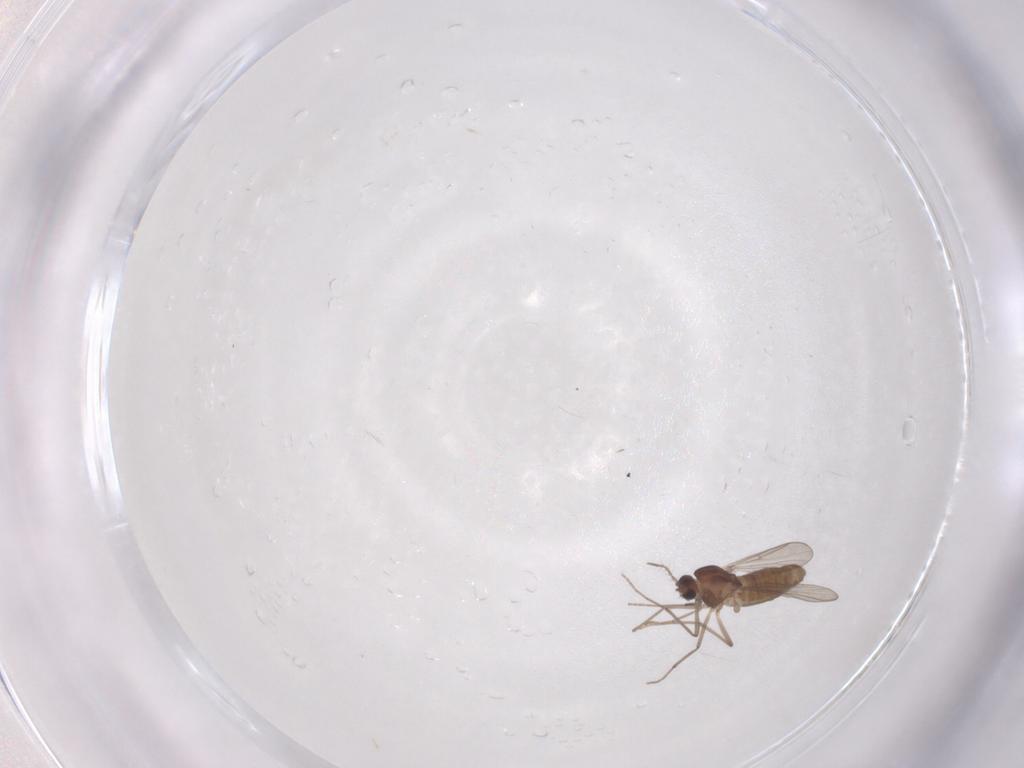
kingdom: Animalia
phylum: Arthropoda
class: Insecta
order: Diptera
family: Chironomidae
